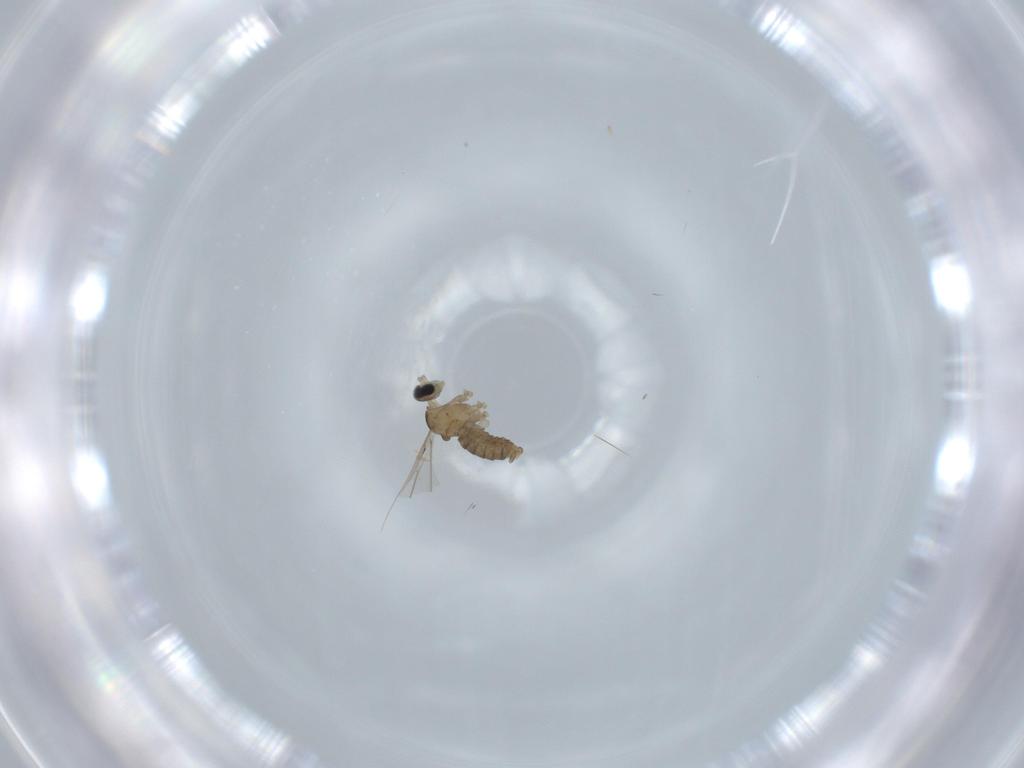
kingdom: Animalia
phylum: Arthropoda
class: Insecta
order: Diptera
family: Cecidomyiidae
